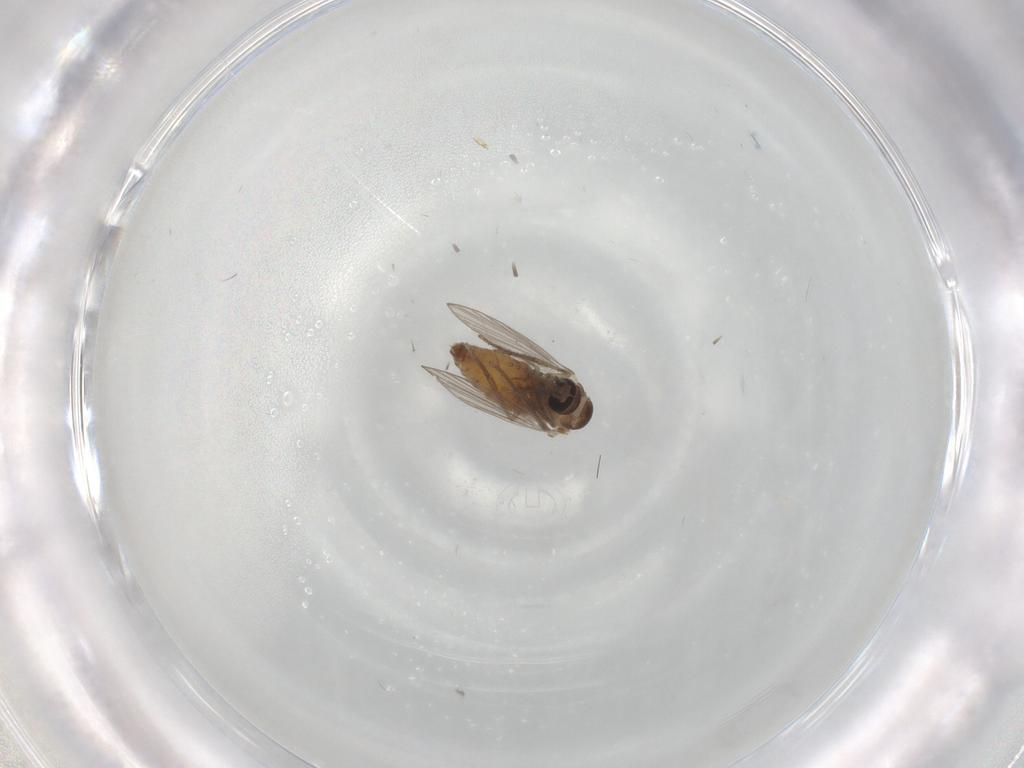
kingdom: Animalia
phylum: Arthropoda
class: Insecta
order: Diptera
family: Psychodidae
